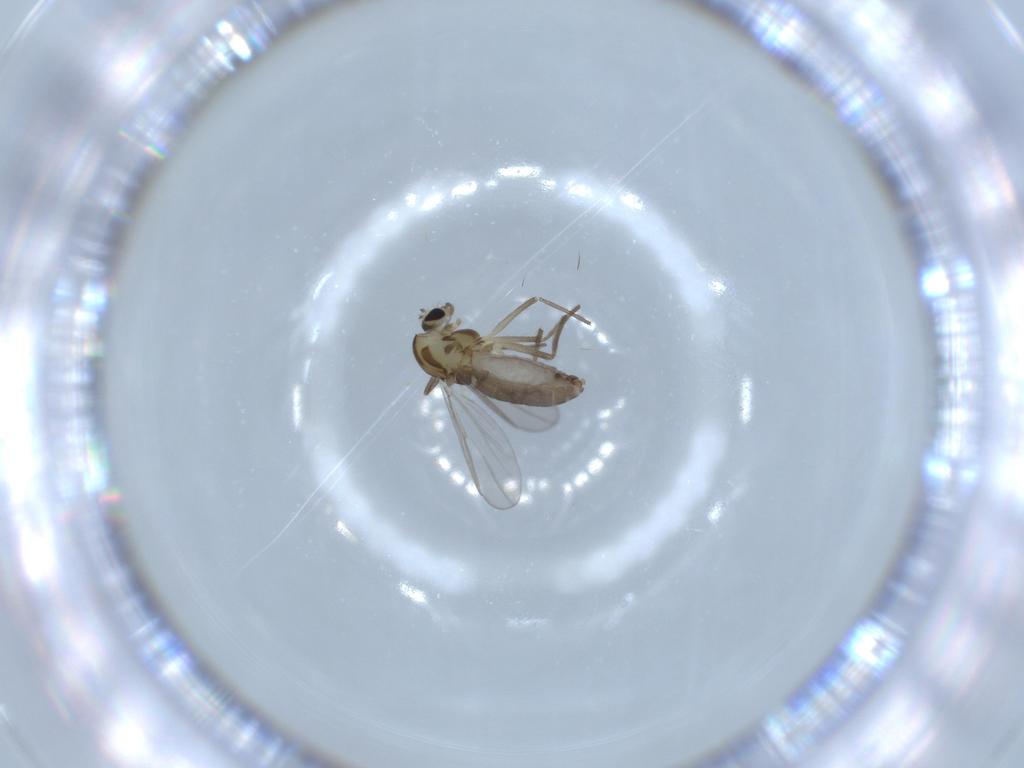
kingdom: Animalia
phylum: Arthropoda
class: Insecta
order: Diptera
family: Chironomidae
